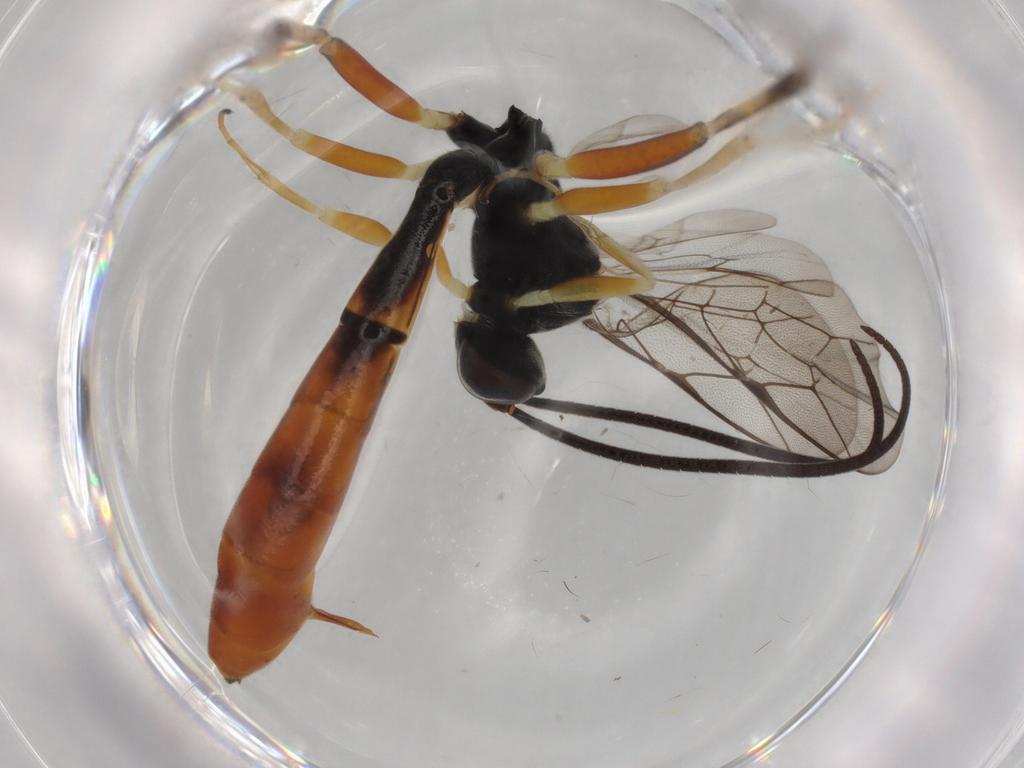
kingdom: Animalia
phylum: Arthropoda
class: Insecta
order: Hymenoptera
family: Ichneumonidae
